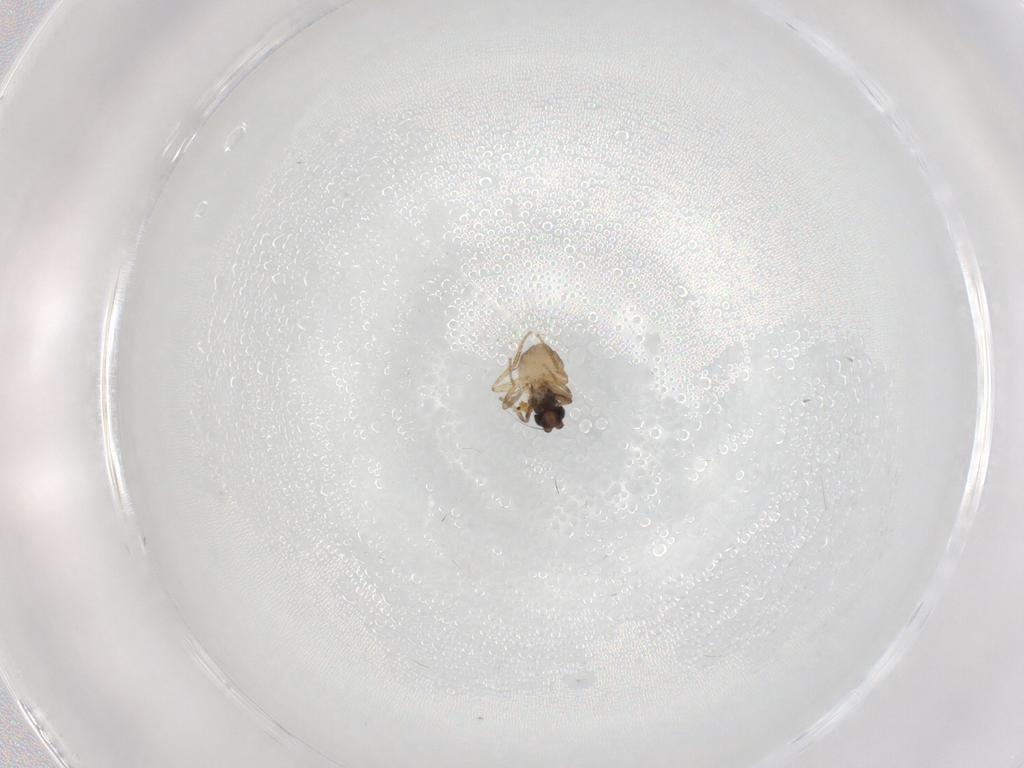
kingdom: Animalia
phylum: Arthropoda
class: Insecta
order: Diptera
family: Phoridae
